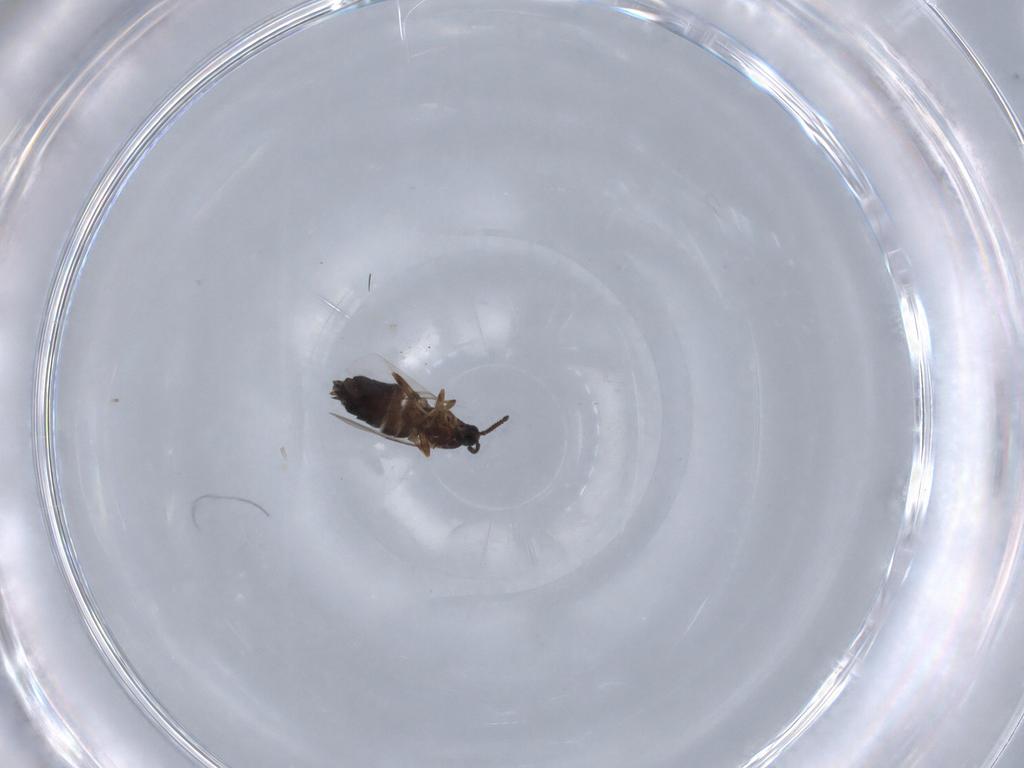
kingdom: Animalia
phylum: Arthropoda
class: Insecta
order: Diptera
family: Scatopsidae
